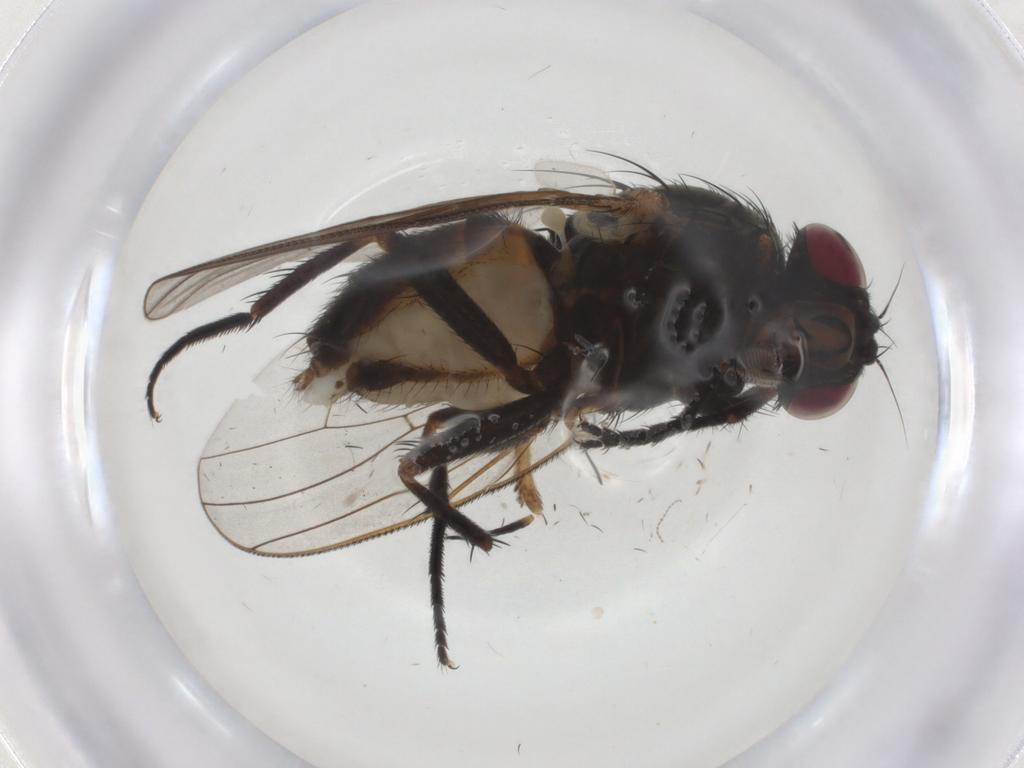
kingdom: Animalia
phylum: Arthropoda
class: Insecta
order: Diptera
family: Fanniidae
